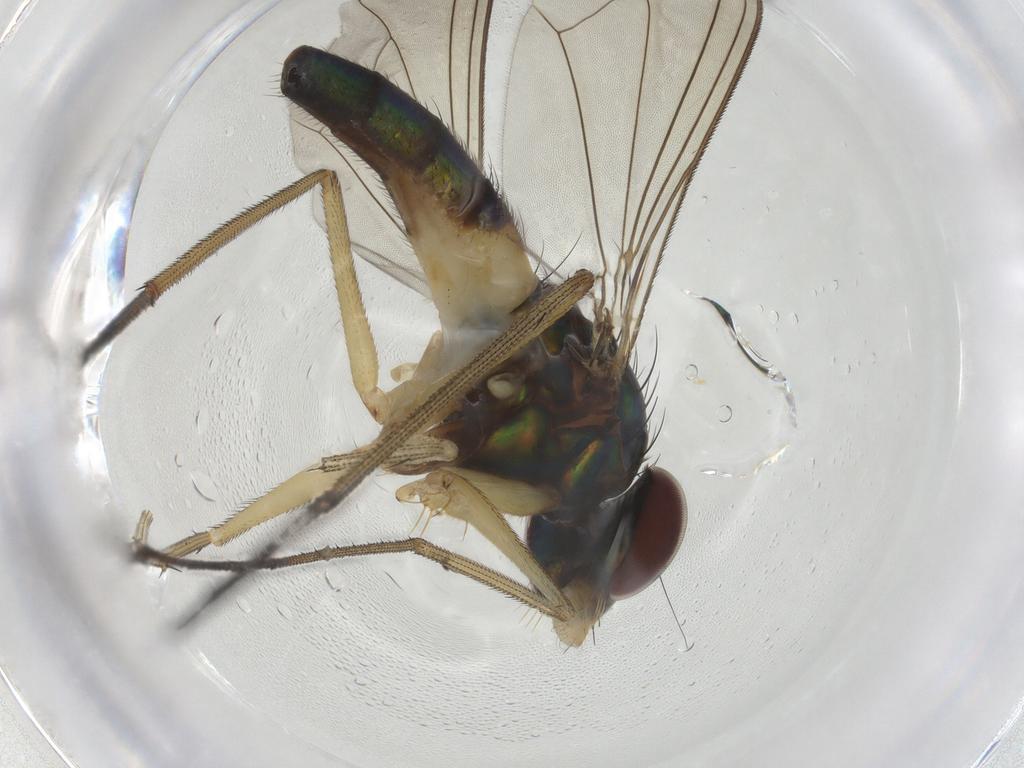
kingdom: Animalia
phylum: Arthropoda
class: Insecta
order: Diptera
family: Dolichopodidae
